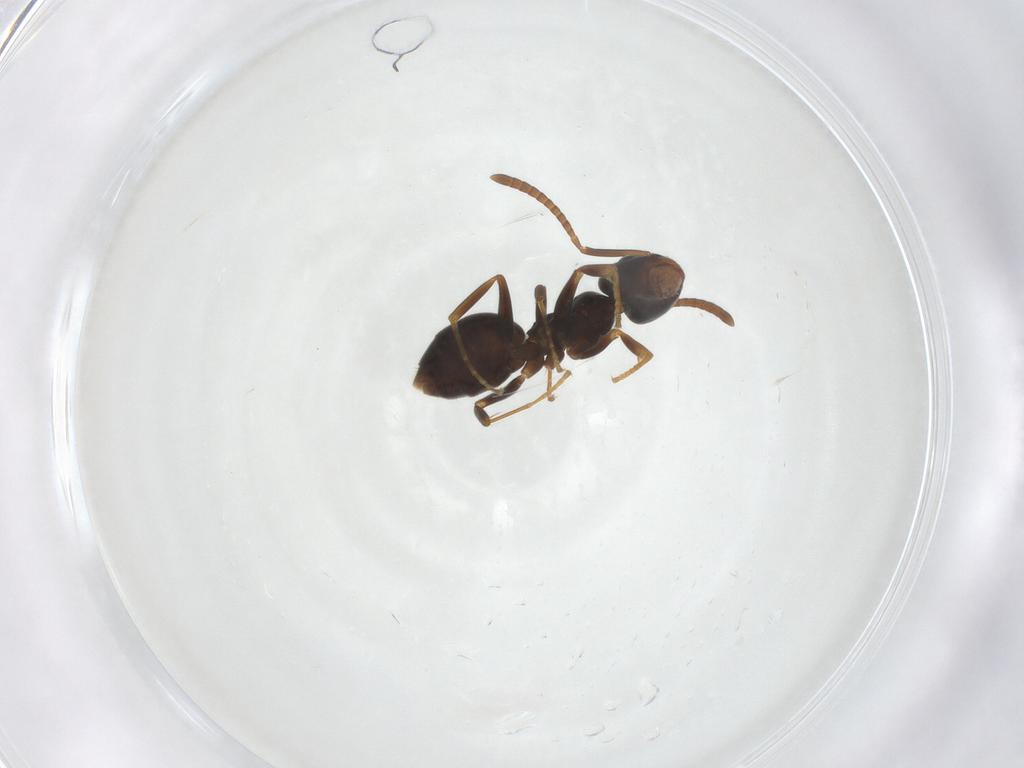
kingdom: Animalia
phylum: Arthropoda
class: Insecta
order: Hymenoptera
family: Formicidae
